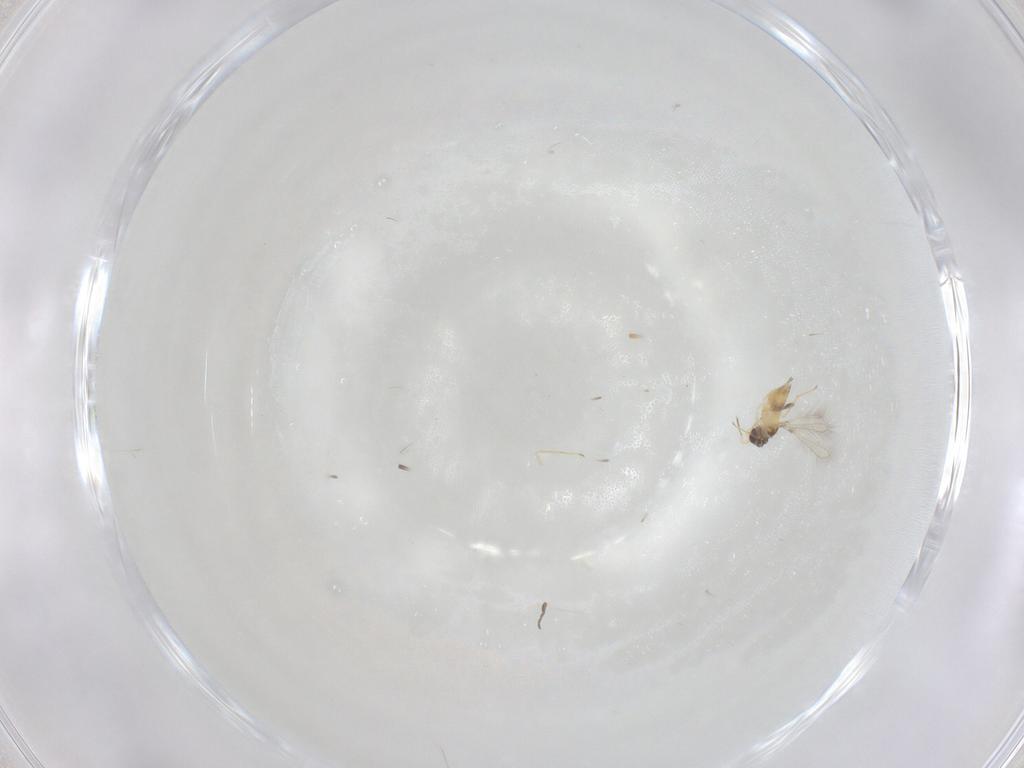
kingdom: Animalia
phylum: Arthropoda
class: Insecta
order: Hymenoptera
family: Mymaridae
